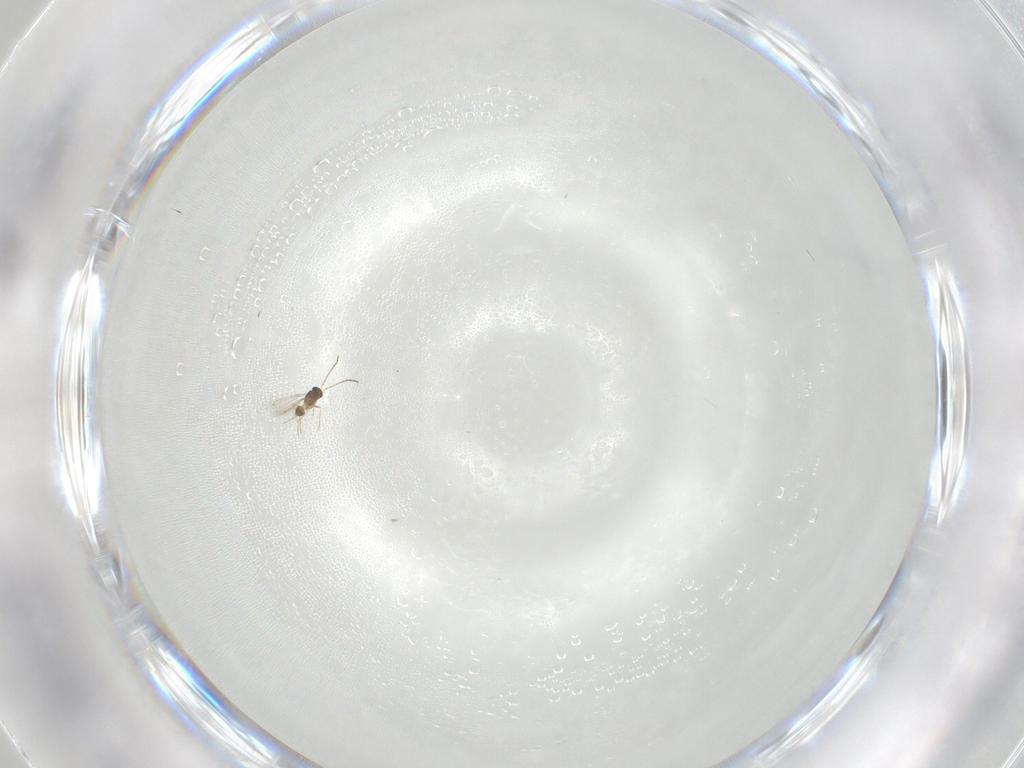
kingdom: Animalia
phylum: Arthropoda
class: Insecta
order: Hymenoptera
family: Mymaridae
